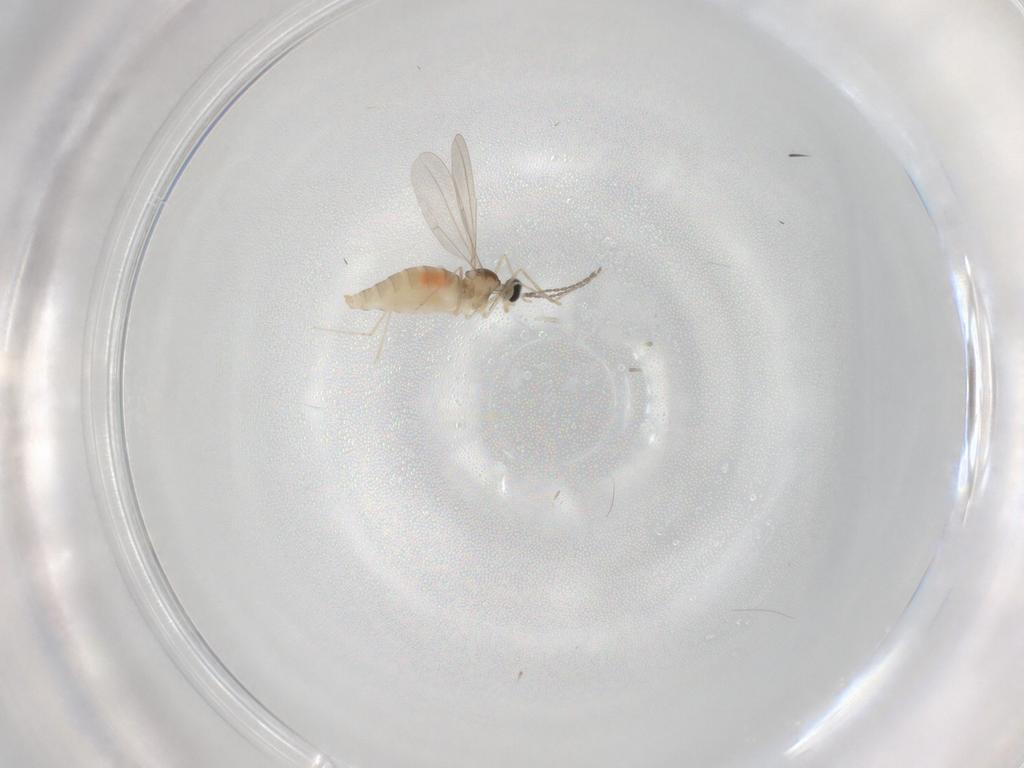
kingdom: Animalia
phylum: Arthropoda
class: Insecta
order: Diptera
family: Cecidomyiidae
